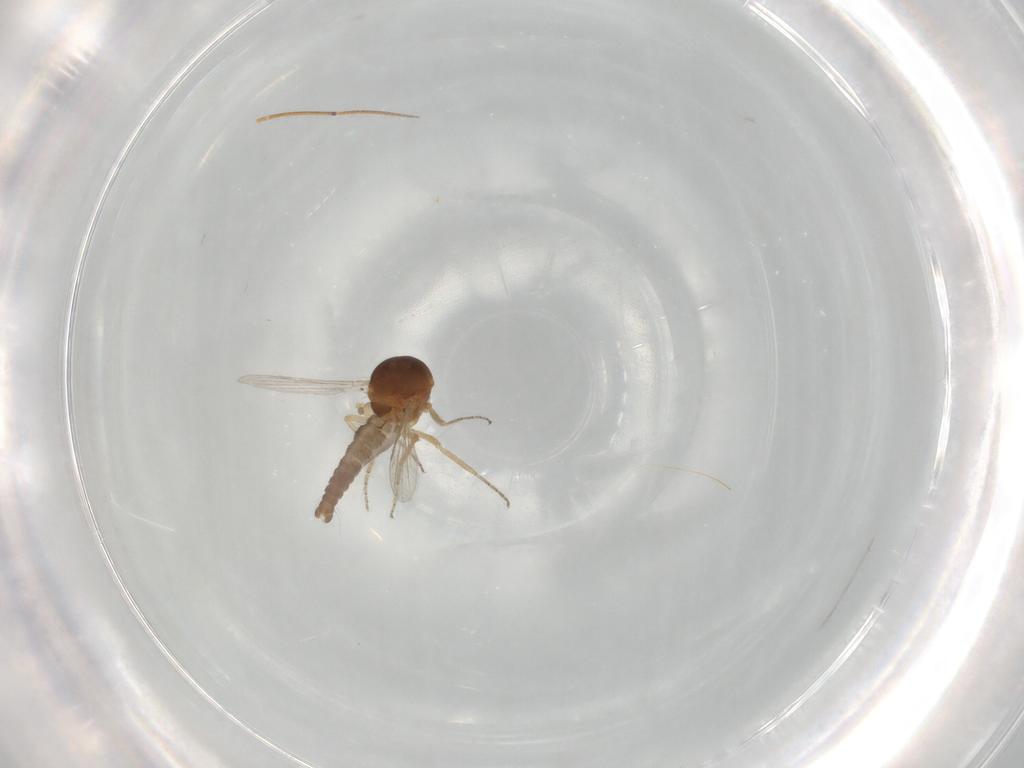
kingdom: Animalia
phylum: Arthropoda
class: Insecta
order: Diptera
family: Ceratopogonidae
